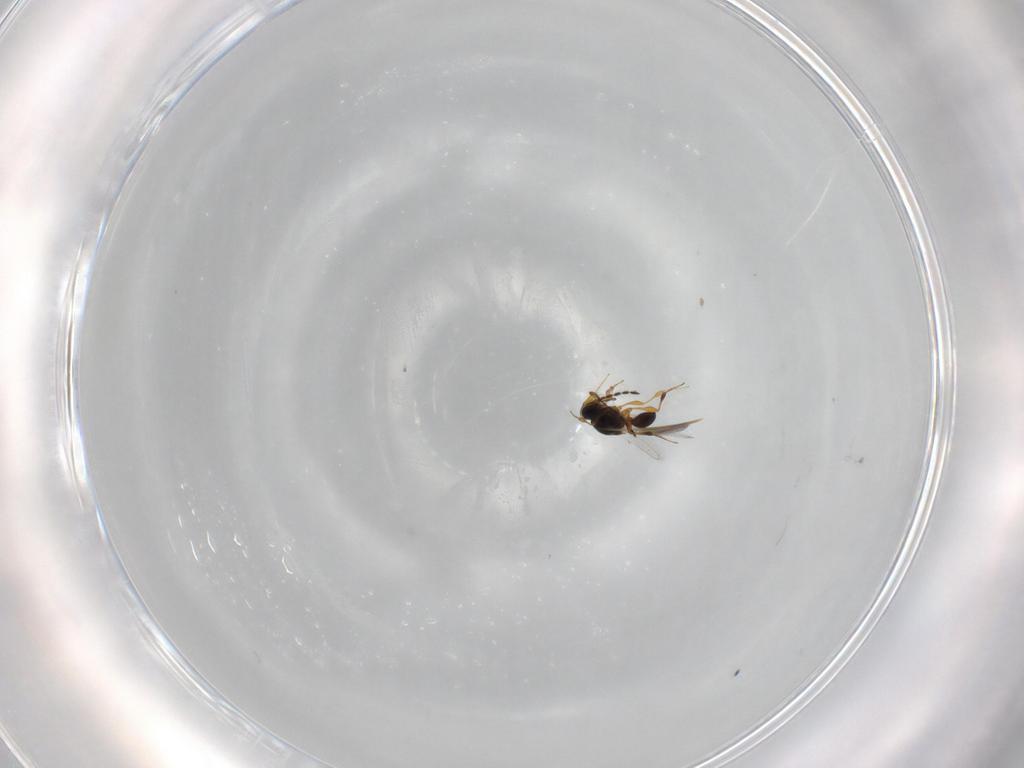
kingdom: Animalia
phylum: Arthropoda
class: Insecta
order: Hymenoptera
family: Platygastridae
